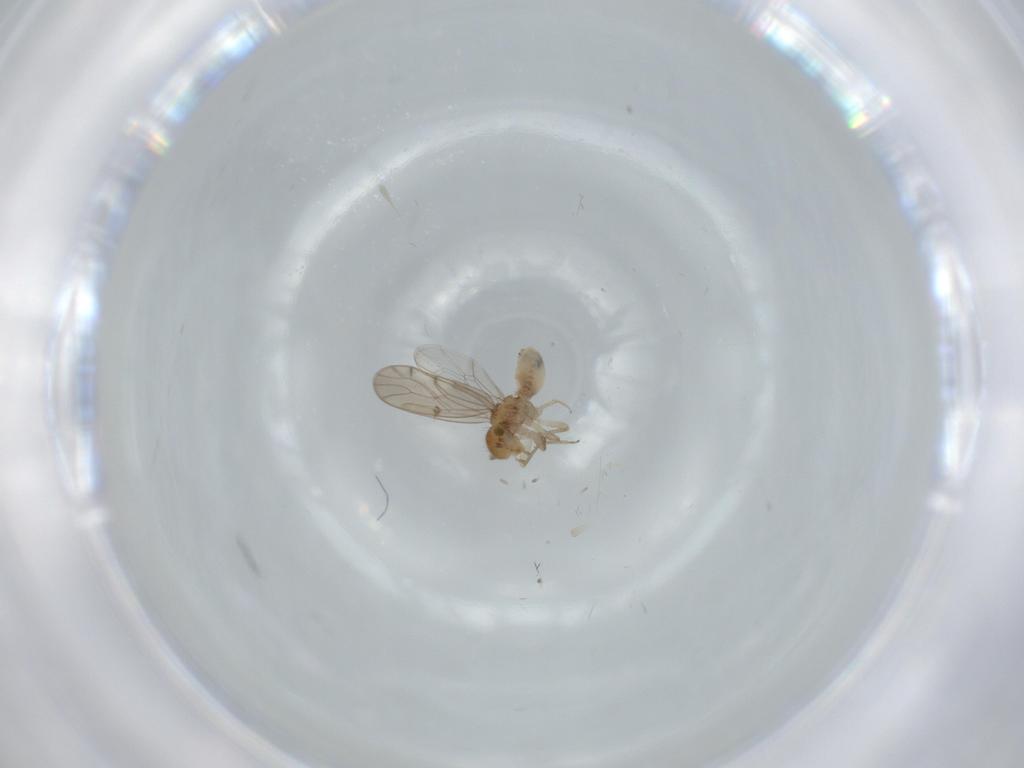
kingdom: Animalia
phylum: Arthropoda
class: Insecta
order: Psocodea
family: Ectopsocidae
